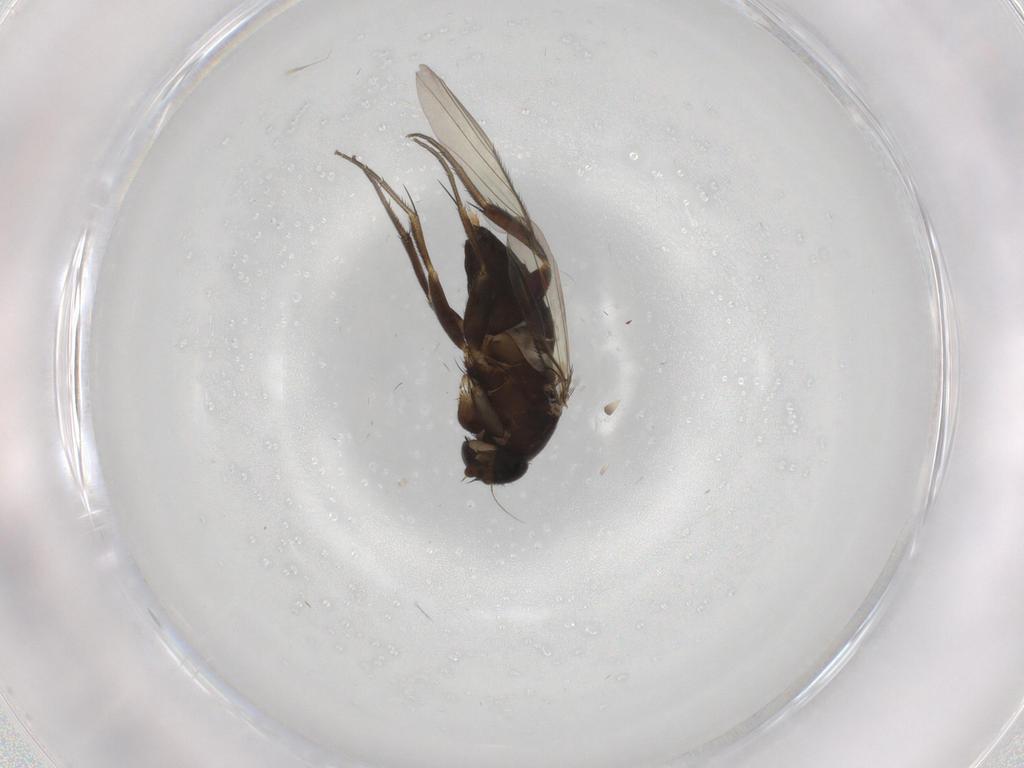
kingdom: Animalia
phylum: Arthropoda
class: Insecta
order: Diptera
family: Phoridae
